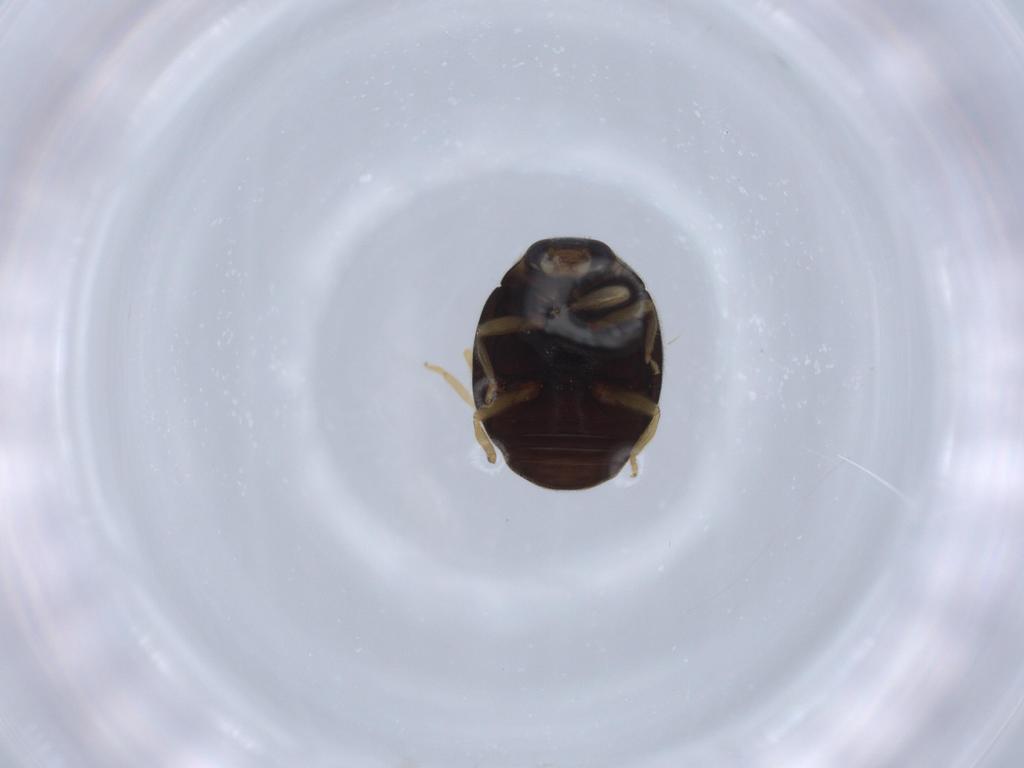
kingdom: Animalia
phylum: Arthropoda
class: Insecta
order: Coleoptera
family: Coccinellidae
